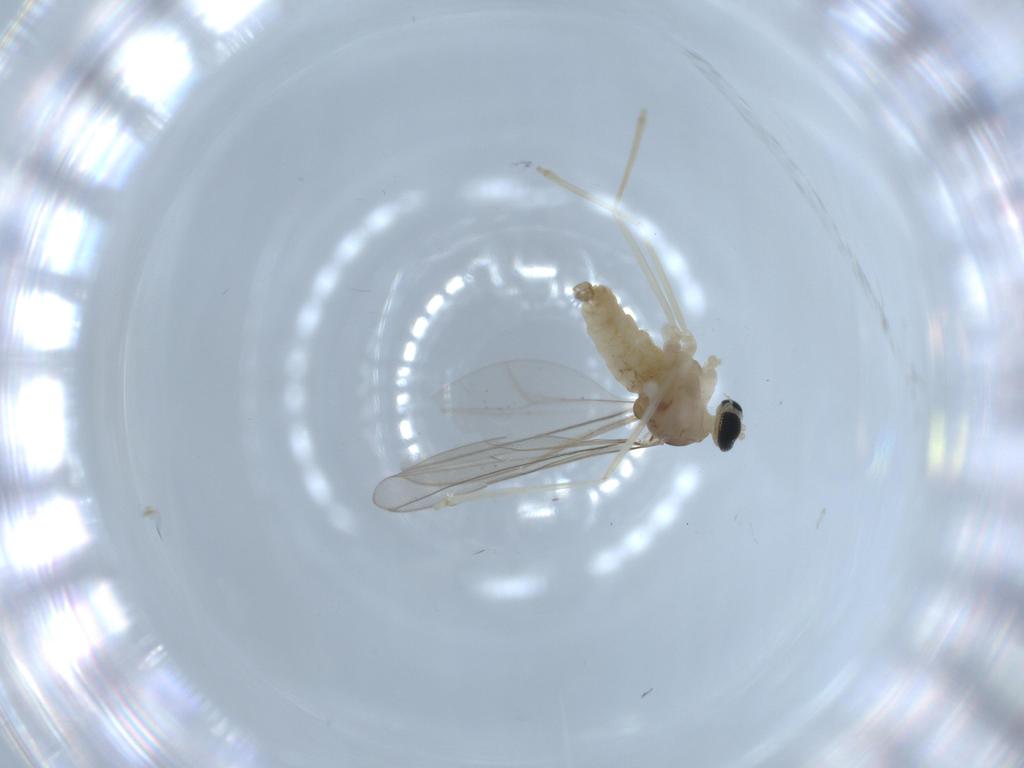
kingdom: Animalia
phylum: Arthropoda
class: Insecta
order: Diptera
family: Cecidomyiidae
